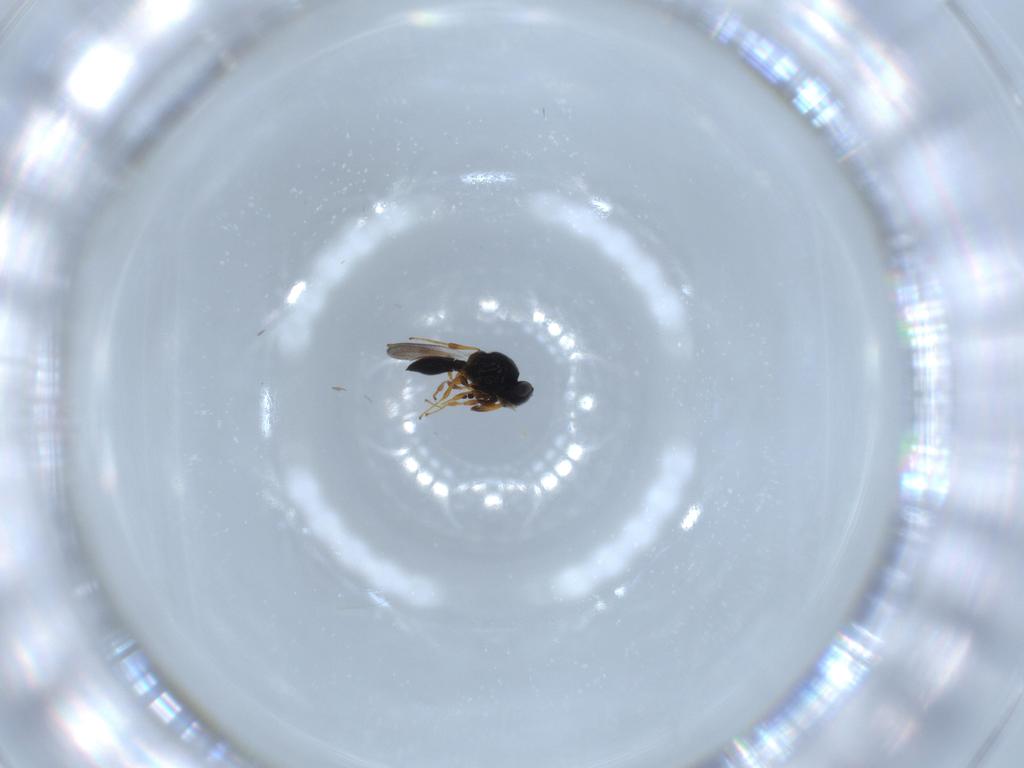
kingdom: Animalia
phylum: Arthropoda
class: Insecta
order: Hymenoptera
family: Platygastridae
